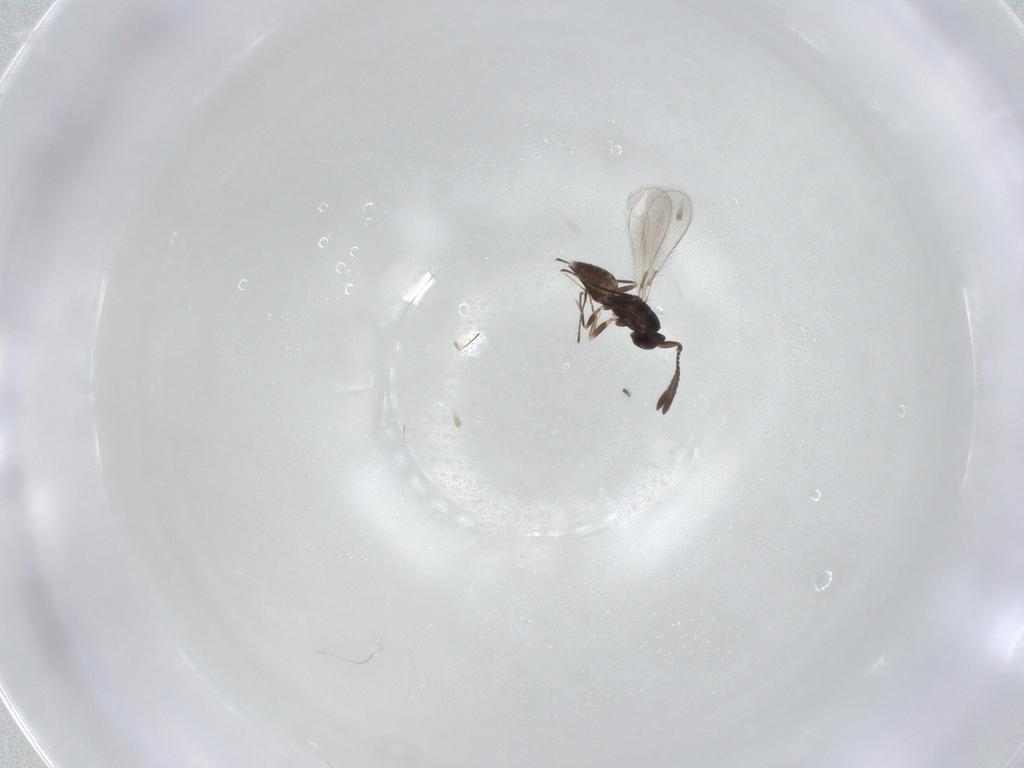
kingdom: Animalia
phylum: Arthropoda
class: Insecta
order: Hymenoptera
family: Mymaridae
